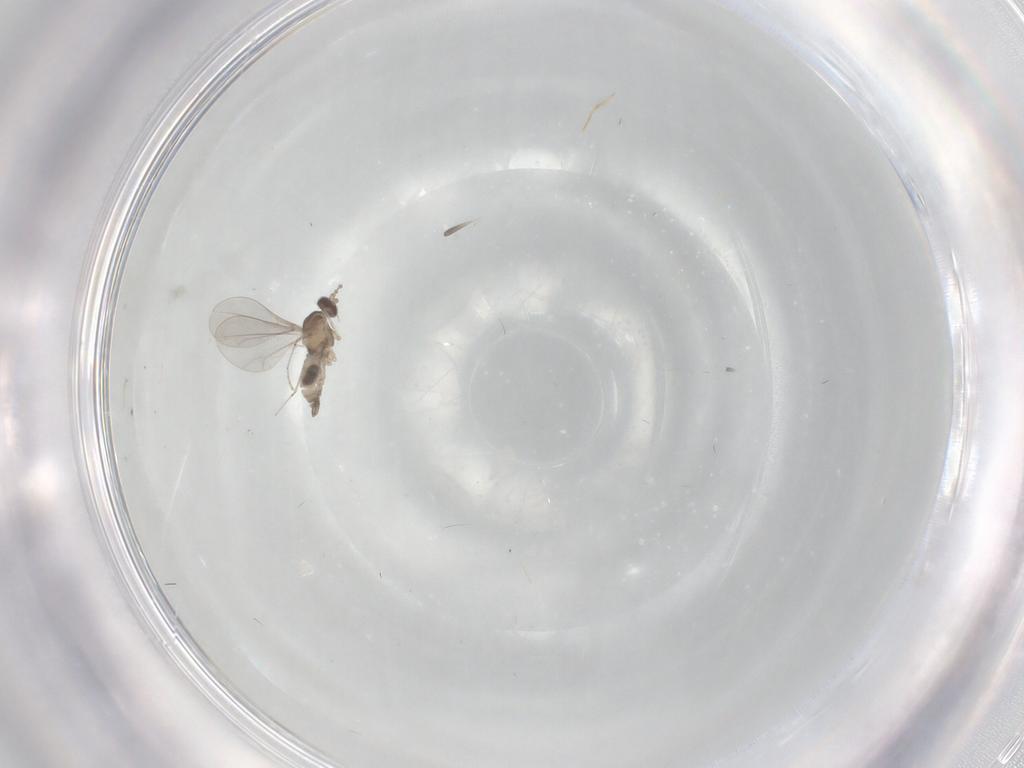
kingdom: Animalia
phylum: Arthropoda
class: Insecta
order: Diptera
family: Cecidomyiidae
